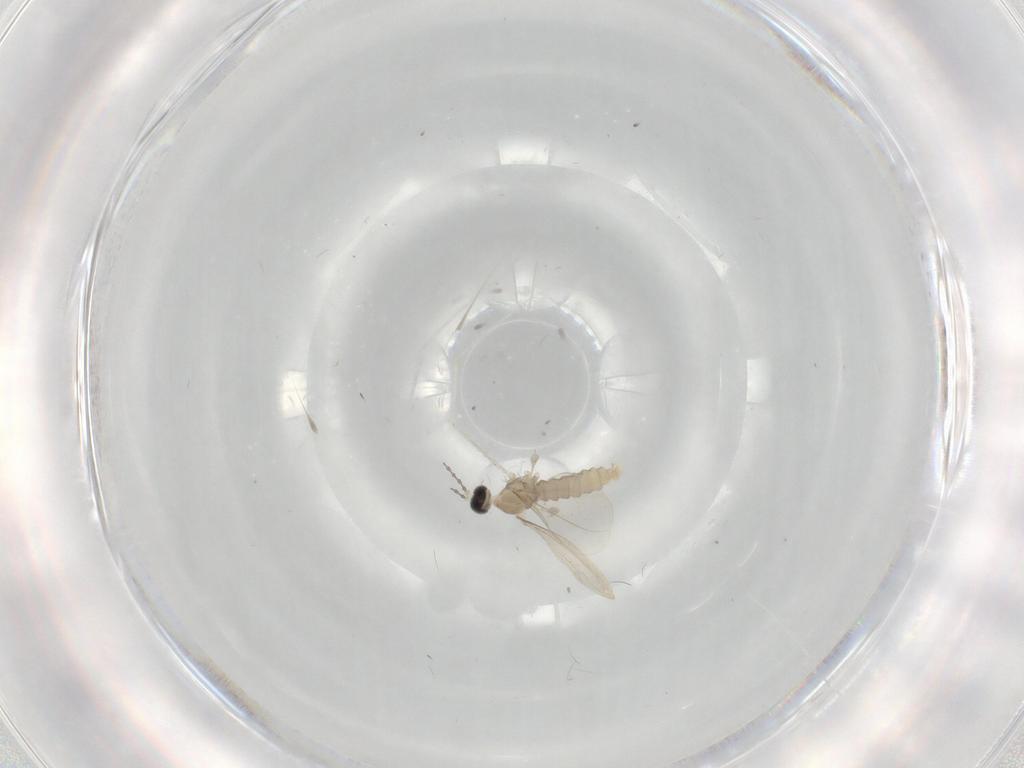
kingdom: Animalia
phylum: Arthropoda
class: Insecta
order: Diptera
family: Cecidomyiidae
